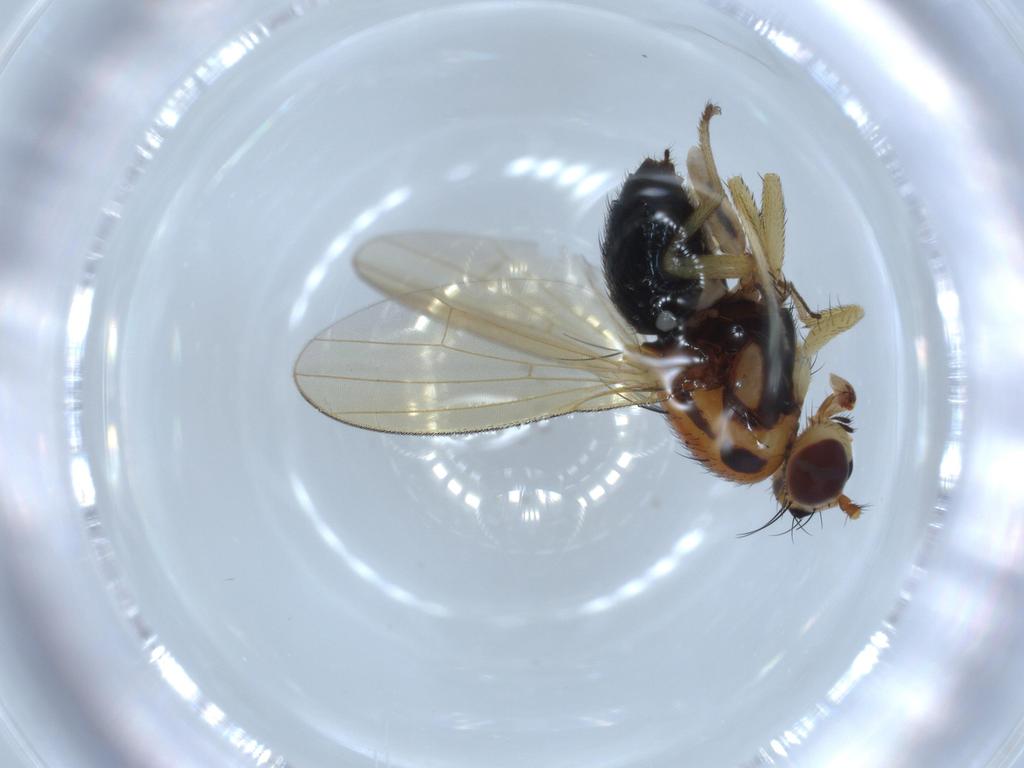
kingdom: Animalia
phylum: Arthropoda
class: Insecta
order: Diptera
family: Lauxaniidae
